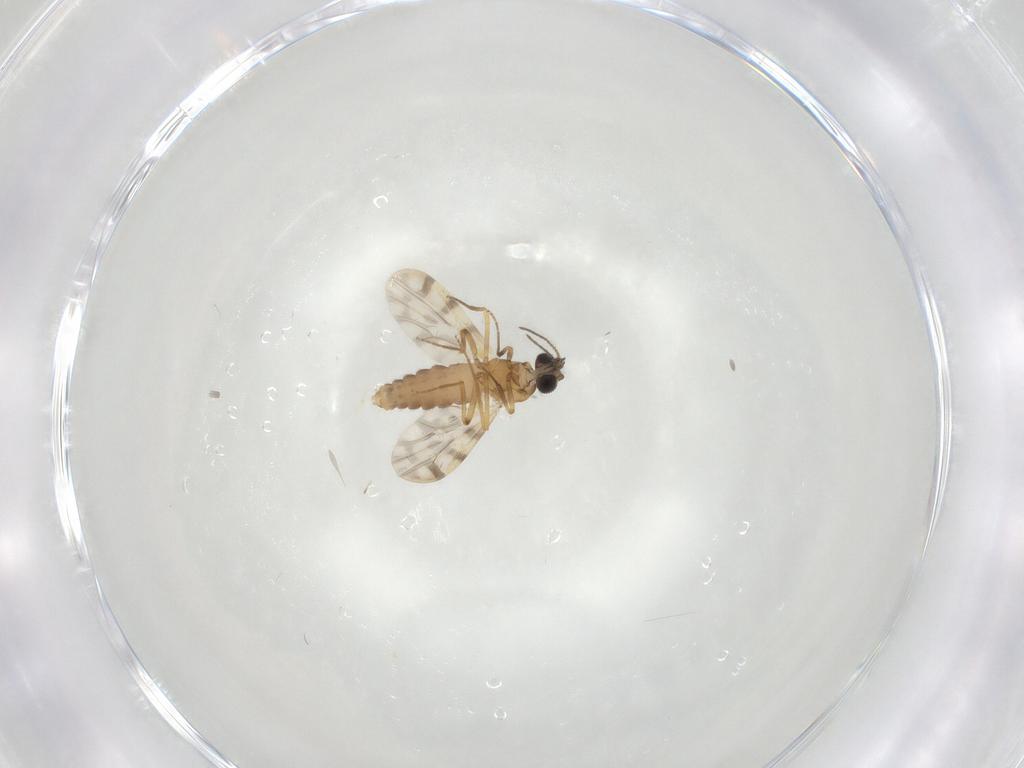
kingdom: Animalia
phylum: Arthropoda
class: Insecta
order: Diptera
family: Ceratopogonidae
